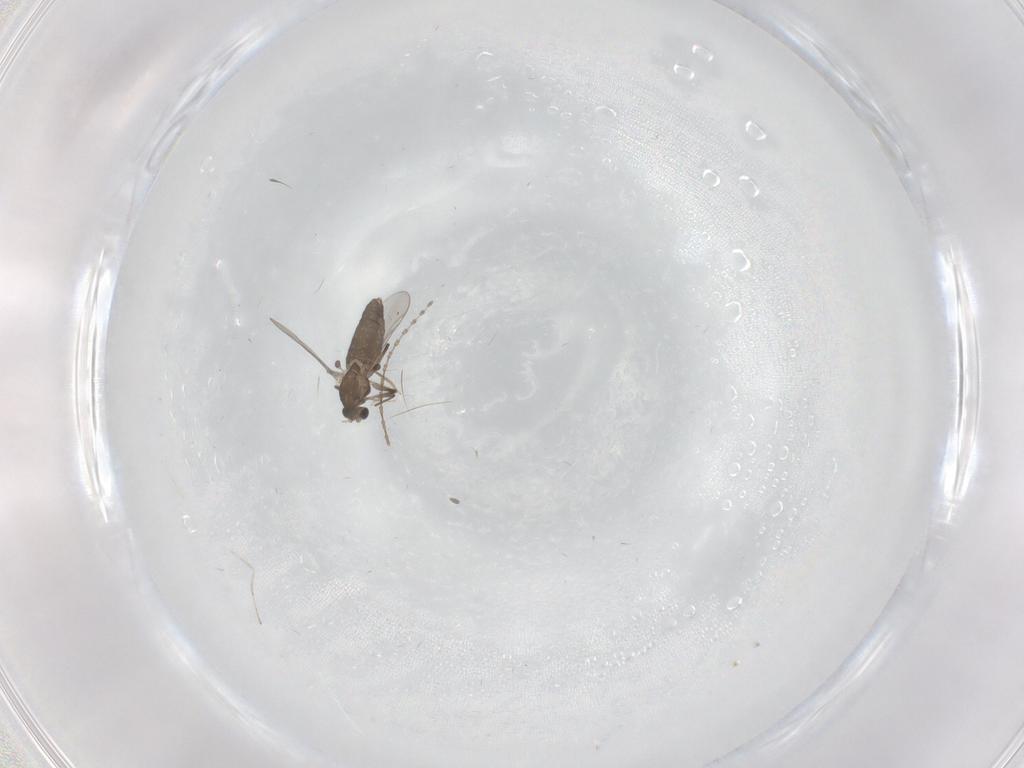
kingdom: Animalia
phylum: Arthropoda
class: Insecta
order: Diptera
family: Chironomidae
